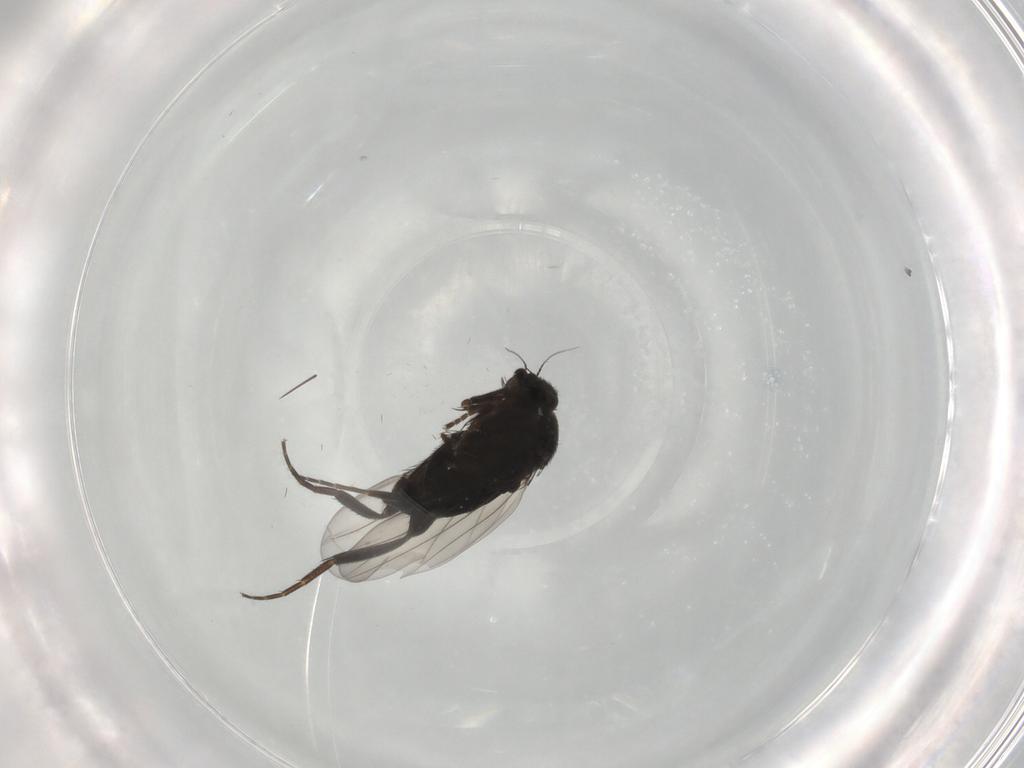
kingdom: Animalia
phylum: Arthropoda
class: Insecta
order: Diptera
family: Phoridae
